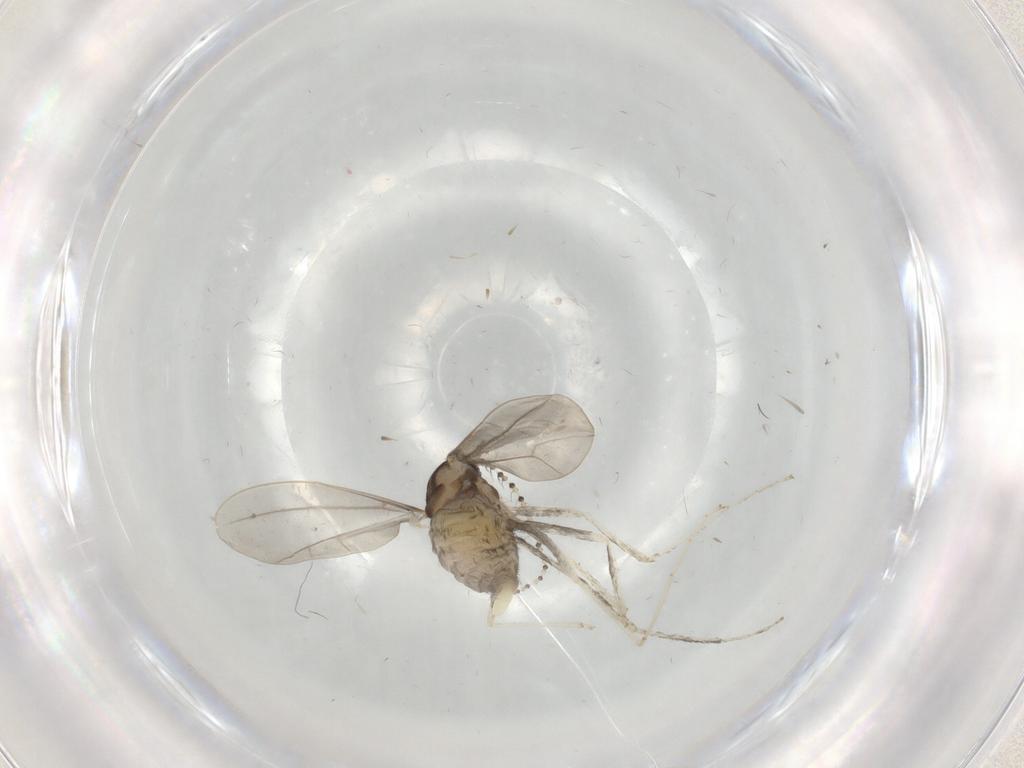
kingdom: Animalia
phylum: Arthropoda
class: Insecta
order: Diptera
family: Cecidomyiidae
